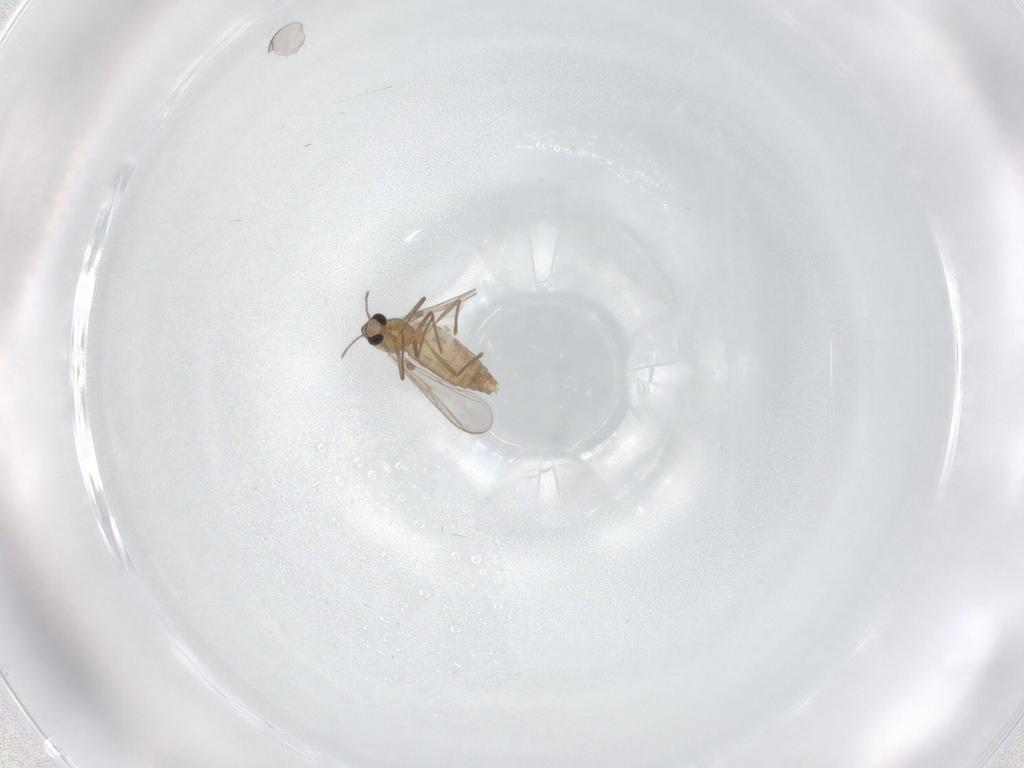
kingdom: Animalia
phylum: Arthropoda
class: Insecta
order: Diptera
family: Chironomidae
